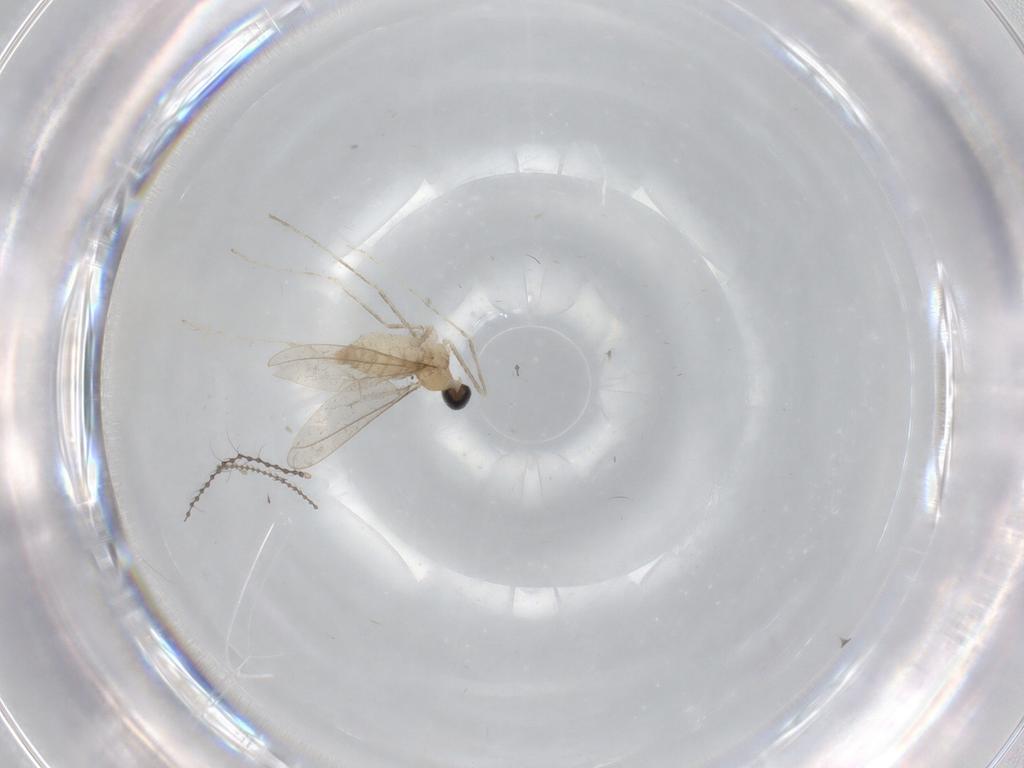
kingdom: Animalia
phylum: Arthropoda
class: Insecta
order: Diptera
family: Cecidomyiidae
